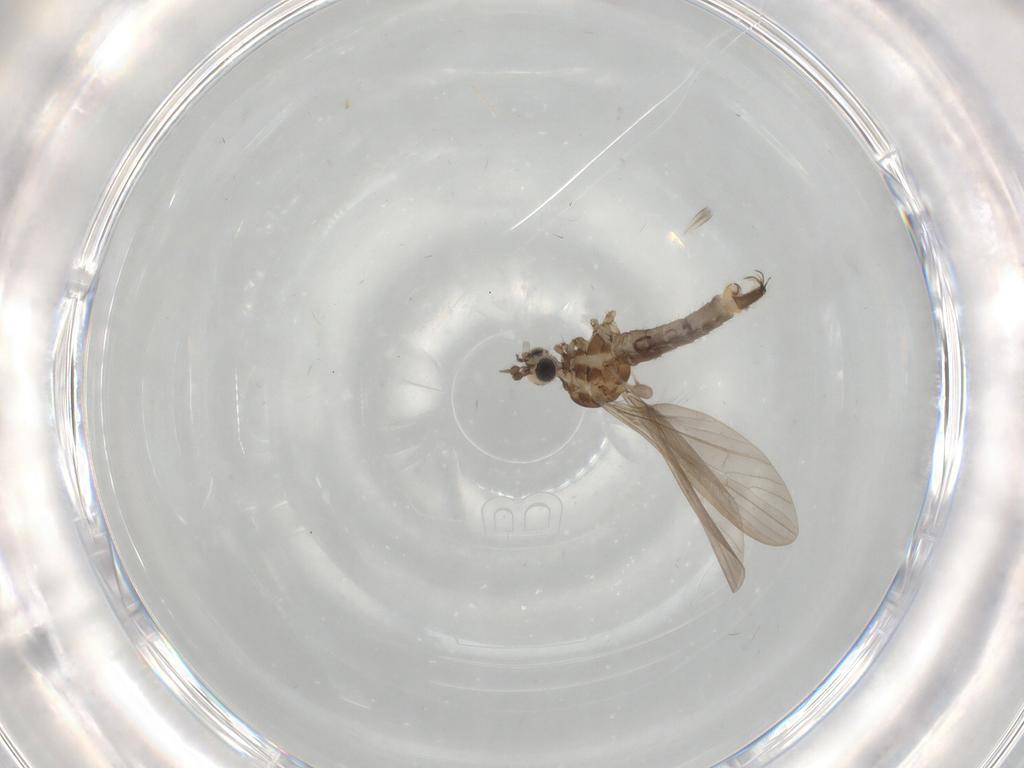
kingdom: Animalia
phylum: Arthropoda
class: Insecta
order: Diptera
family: Limoniidae
